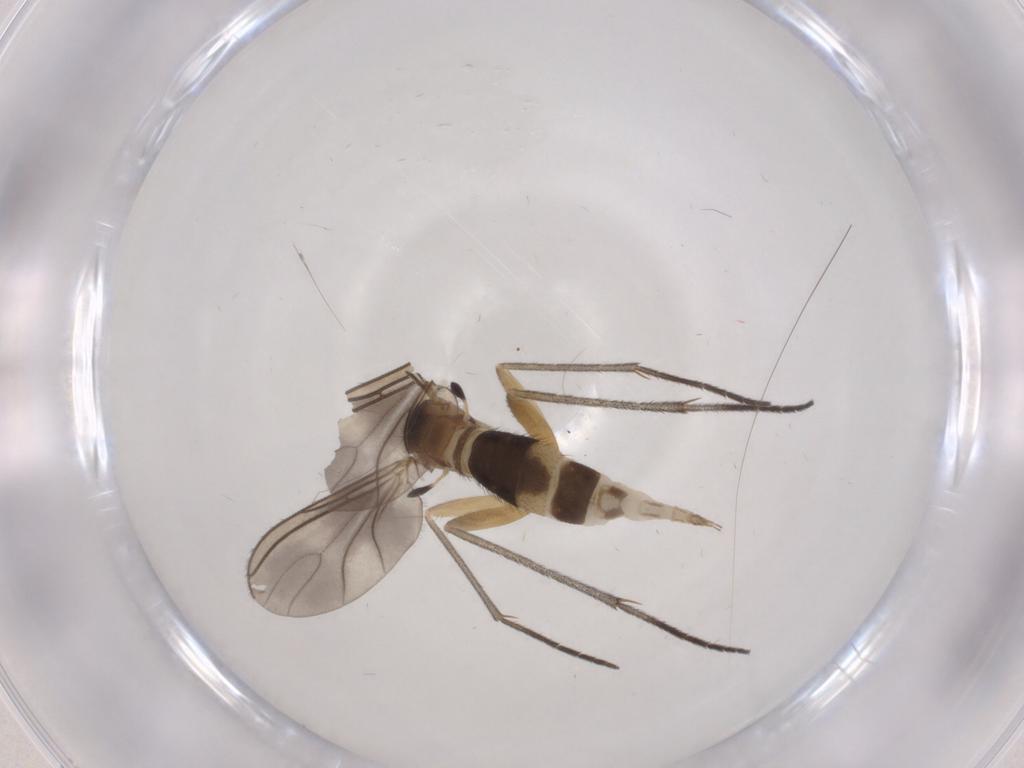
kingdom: Animalia
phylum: Arthropoda
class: Insecta
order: Diptera
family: Sciaridae
